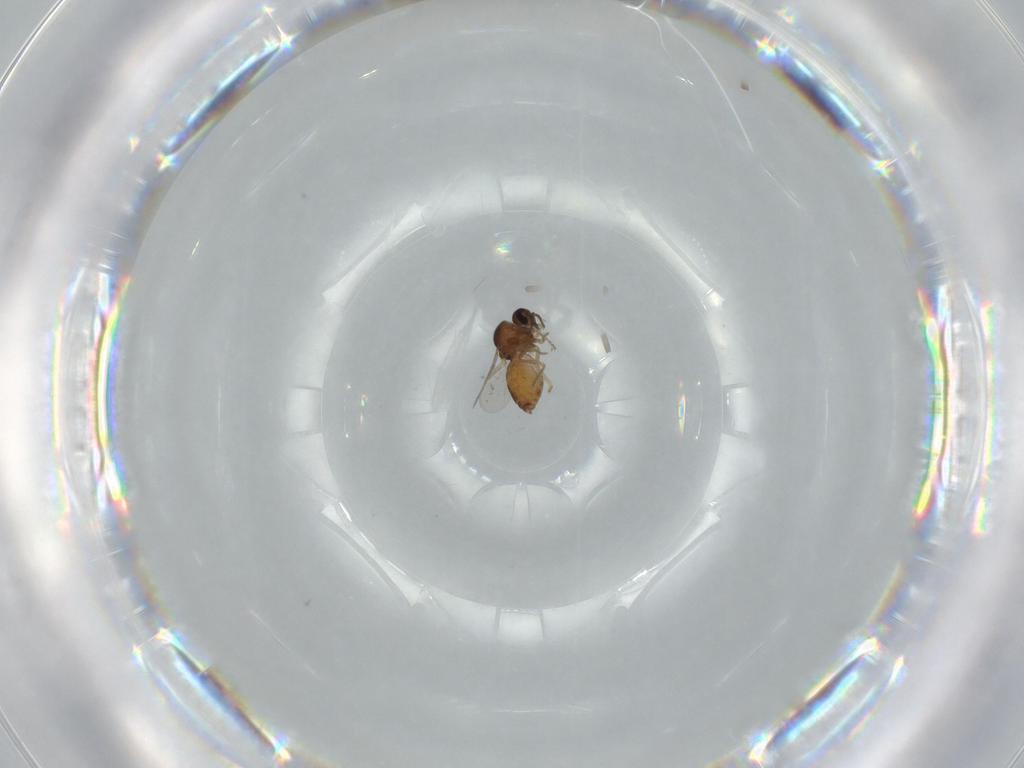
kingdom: Animalia
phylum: Arthropoda
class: Insecta
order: Diptera
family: Ceratopogonidae
